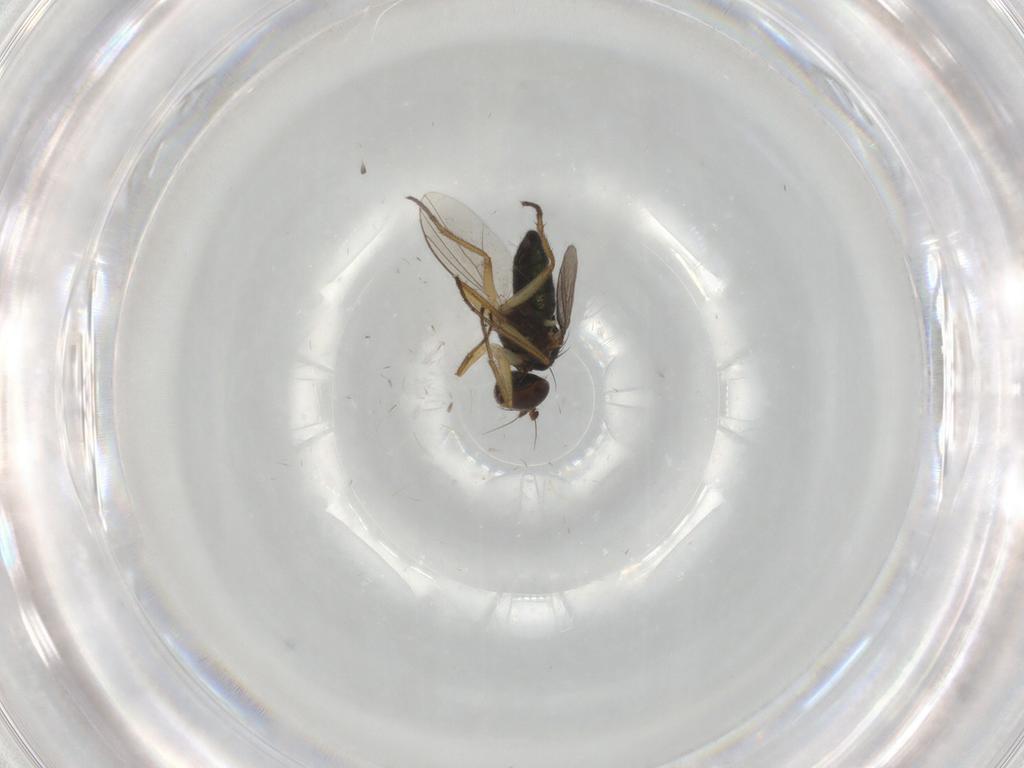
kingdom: Animalia
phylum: Arthropoda
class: Insecta
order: Diptera
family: Dolichopodidae
